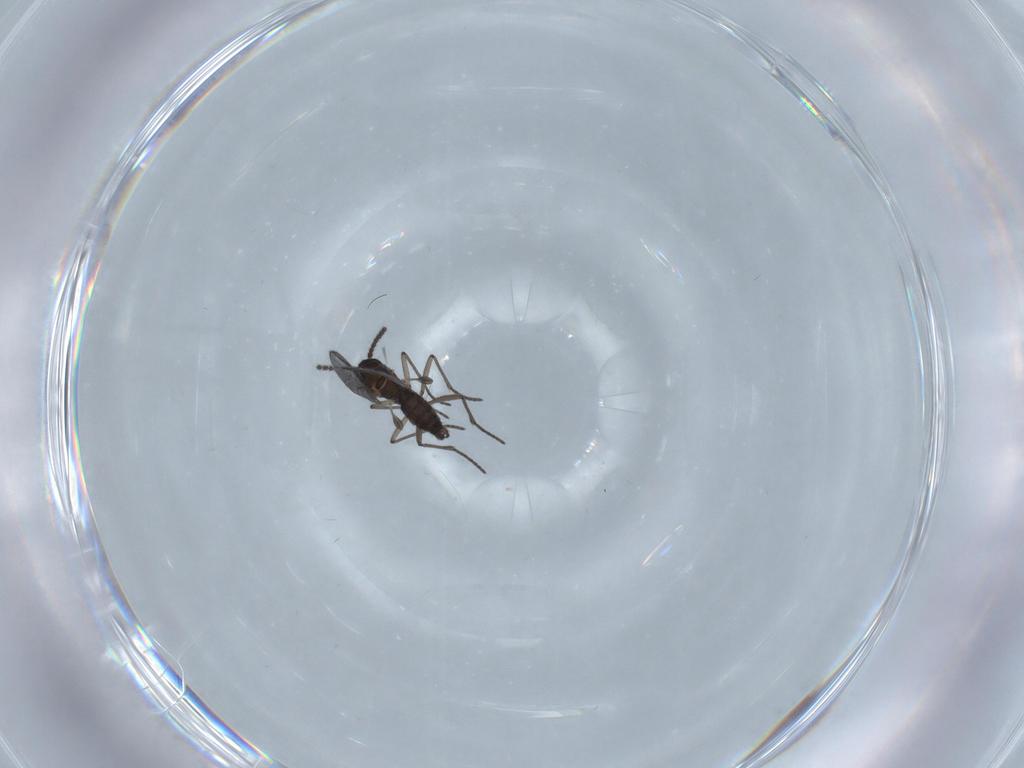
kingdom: Animalia
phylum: Arthropoda
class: Insecta
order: Diptera
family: Sciaridae
